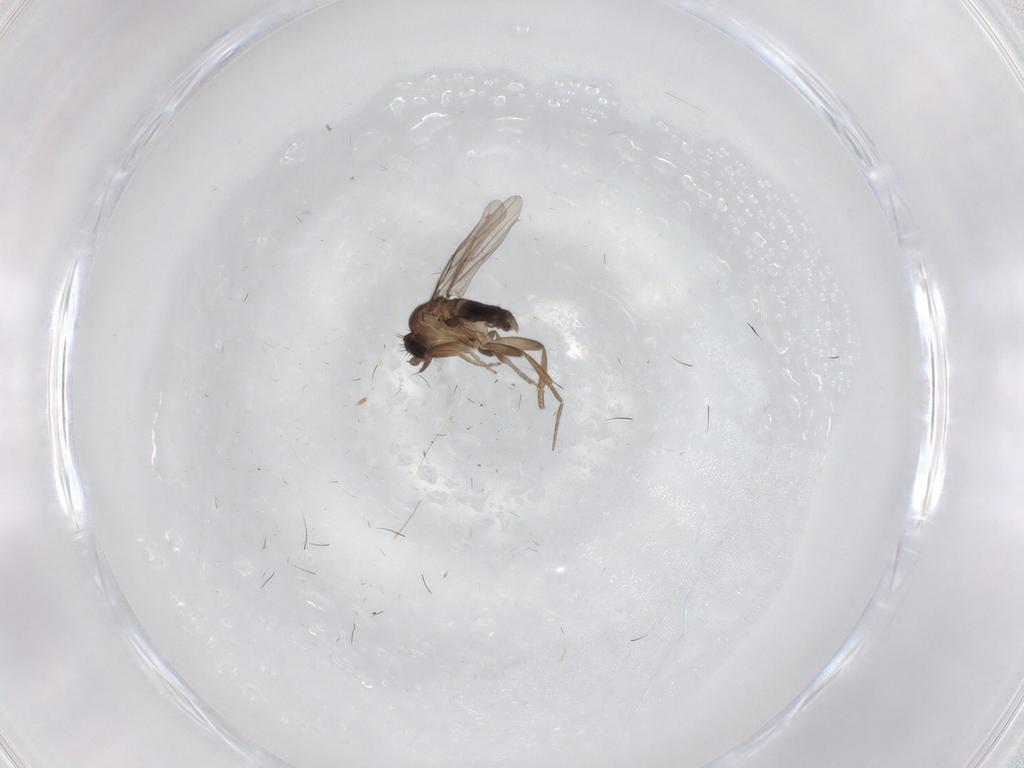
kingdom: Animalia
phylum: Arthropoda
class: Insecta
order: Diptera
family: Phoridae
